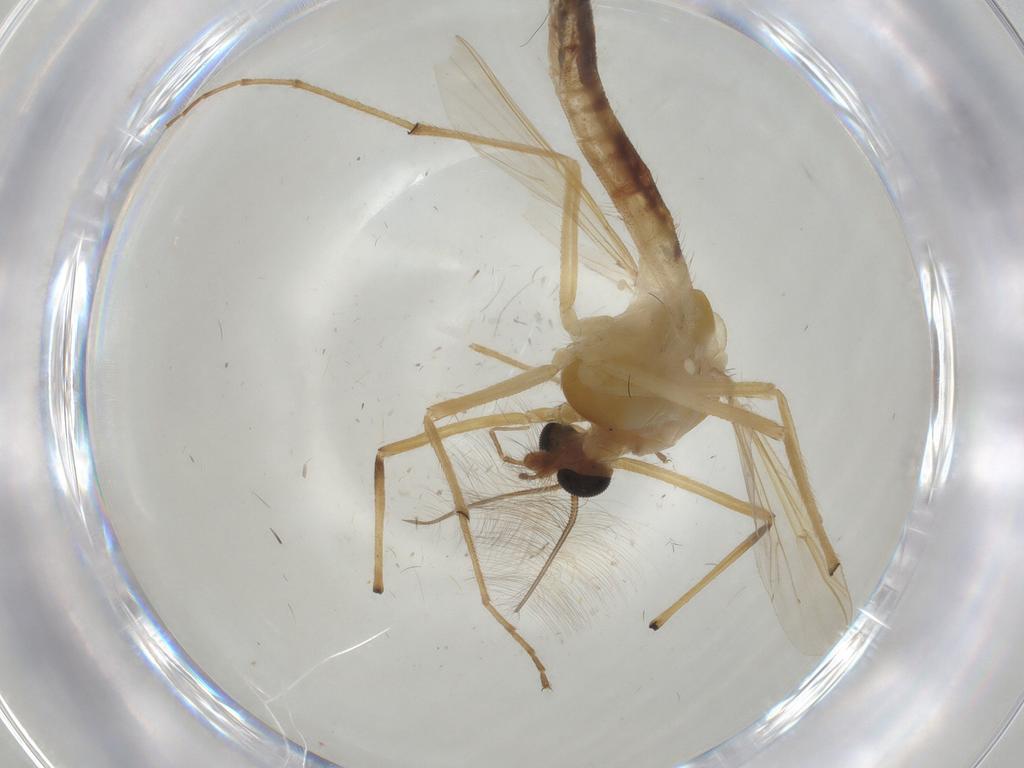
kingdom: Animalia
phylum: Arthropoda
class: Insecta
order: Diptera
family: Chironomidae
